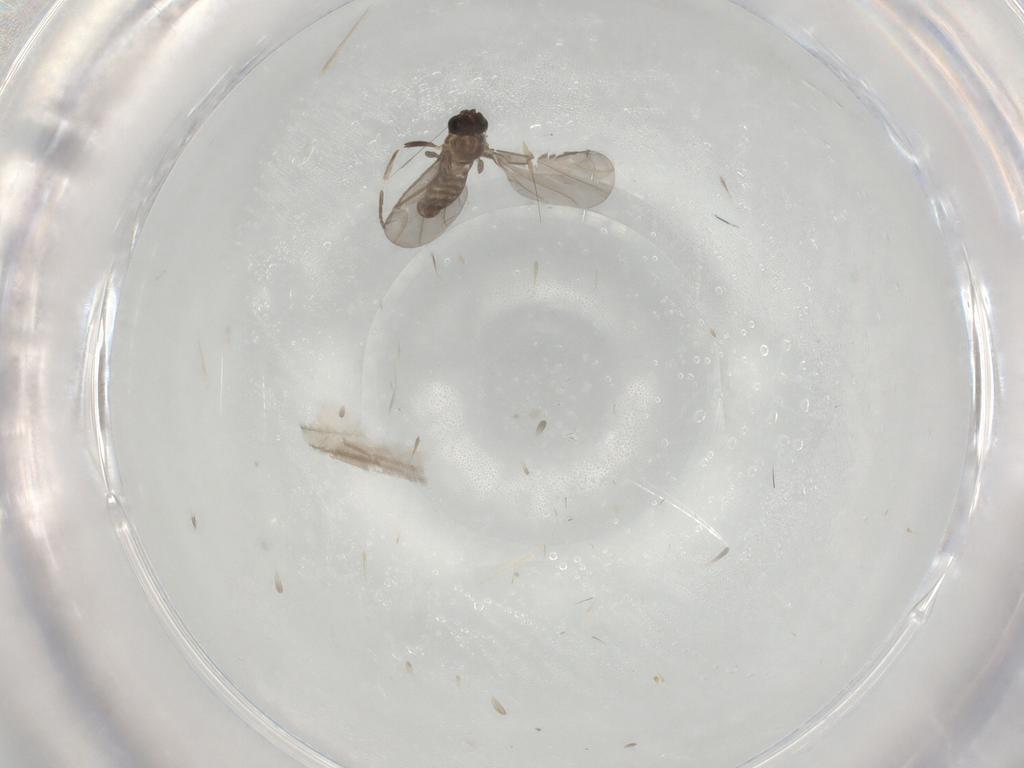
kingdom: Animalia
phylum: Arthropoda
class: Insecta
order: Diptera
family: Phoridae
